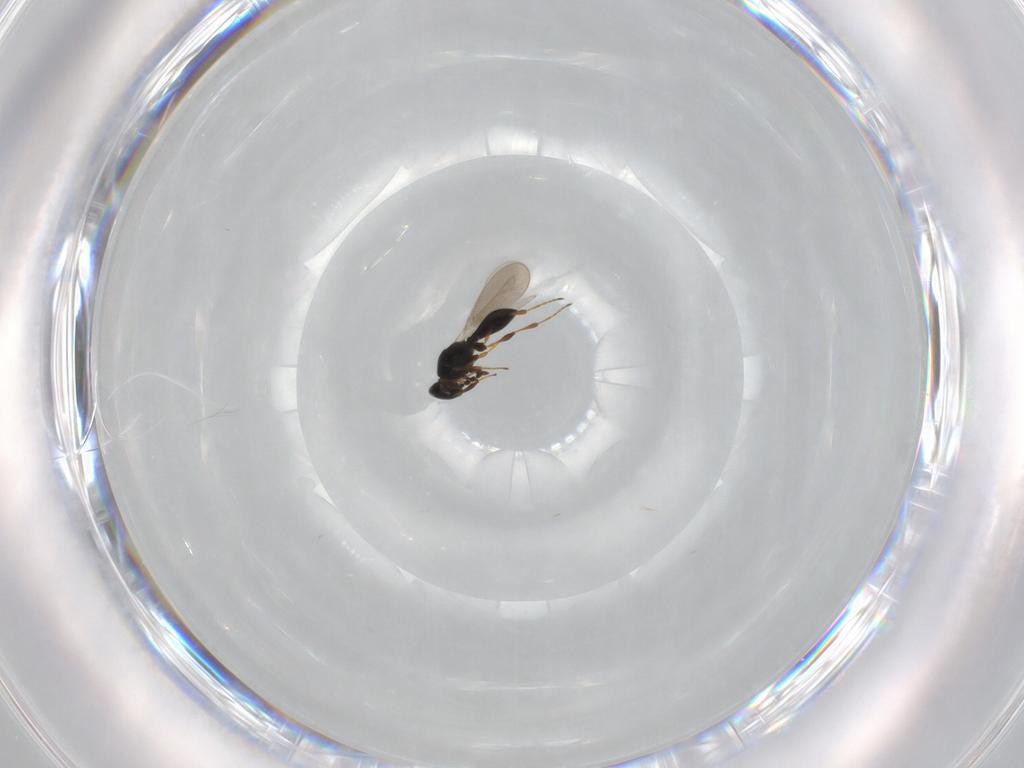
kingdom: Animalia
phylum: Arthropoda
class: Insecta
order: Hymenoptera
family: Platygastridae
